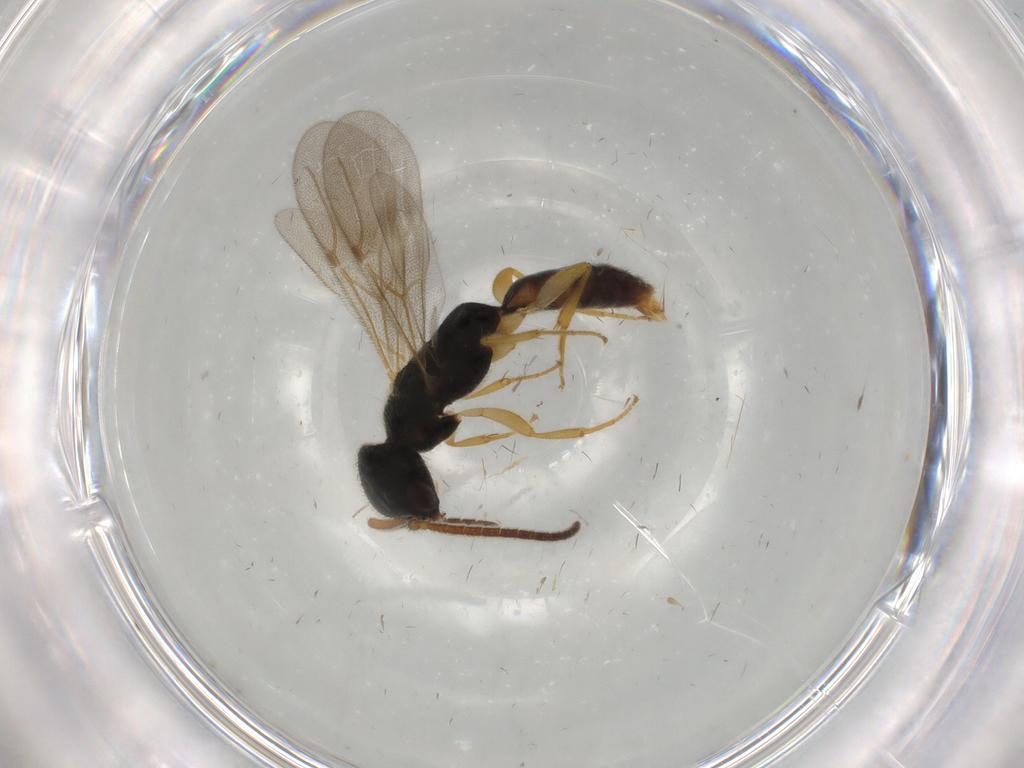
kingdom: Animalia
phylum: Arthropoda
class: Insecta
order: Hymenoptera
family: Bethylidae
